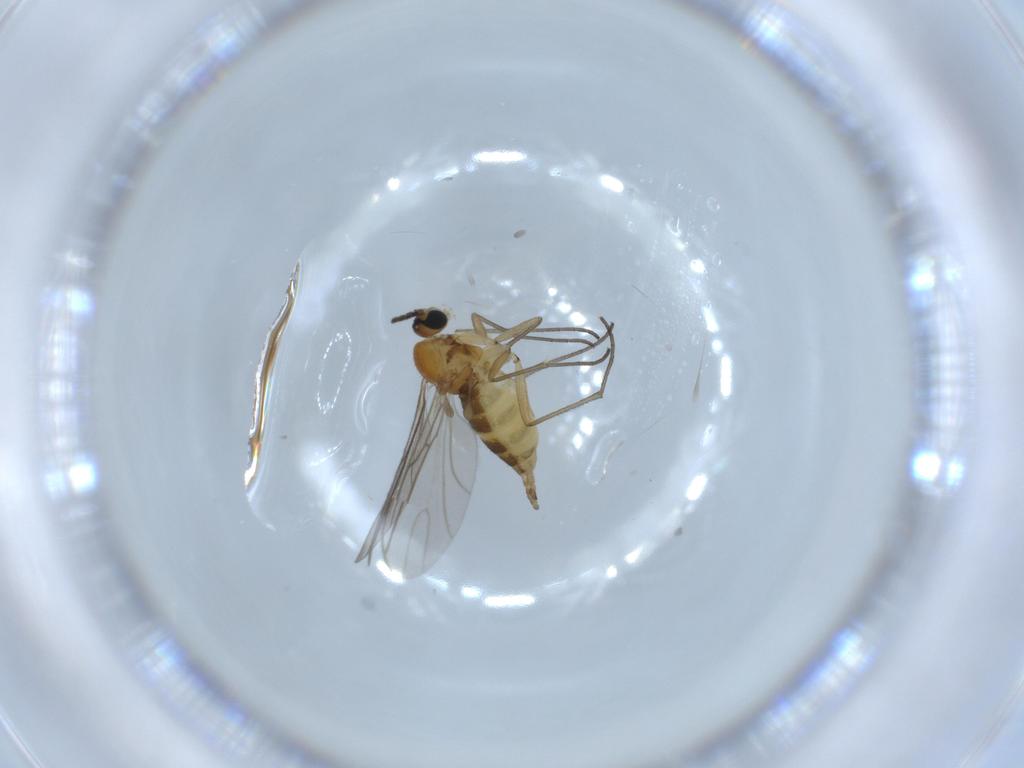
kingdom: Animalia
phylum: Arthropoda
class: Insecta
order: Diptera
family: Sciaridae
